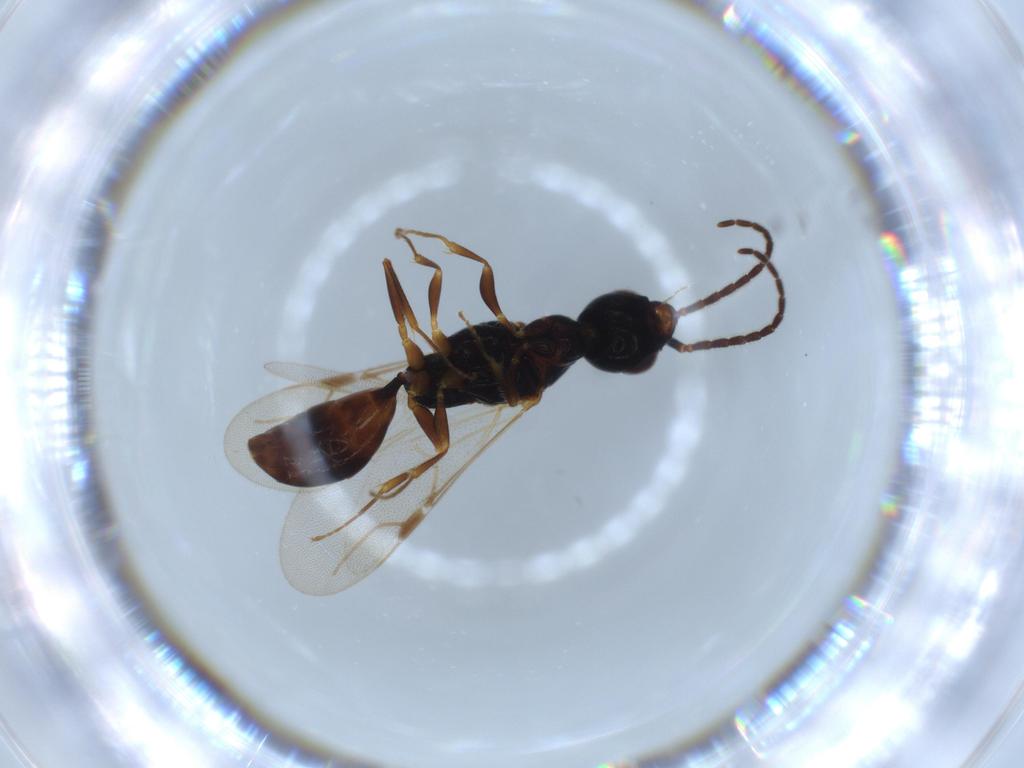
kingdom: Animalia
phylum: Arthropoda
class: Insecta
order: Hymenoptera
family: Bethylidae
